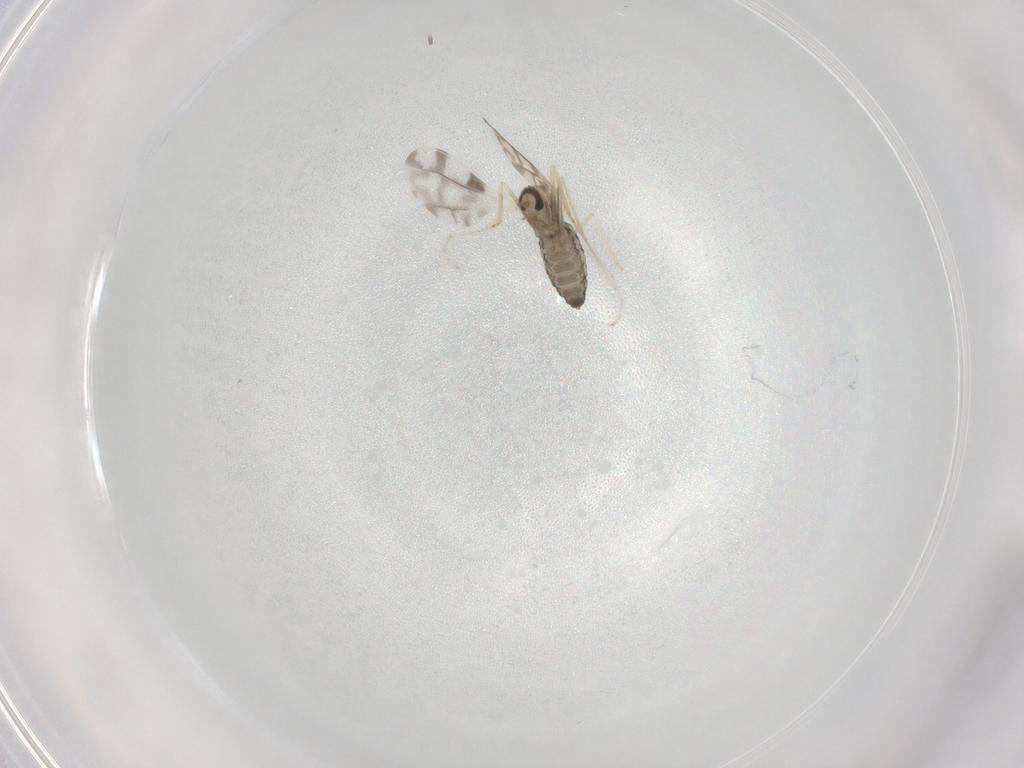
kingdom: Animalia
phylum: Arthropoda
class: Insecta
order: Diptera
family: Cecidomyiidae
